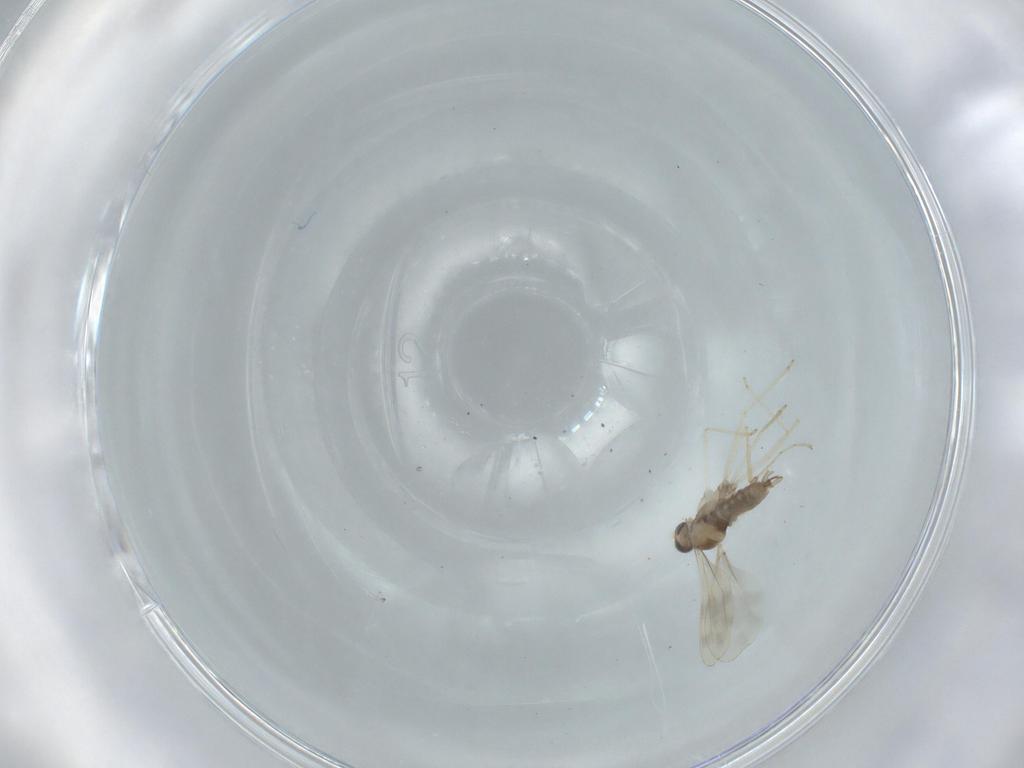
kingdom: Animalia
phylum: Arthropoda
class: Insecta
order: Diptera
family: Cecidomyiidae
